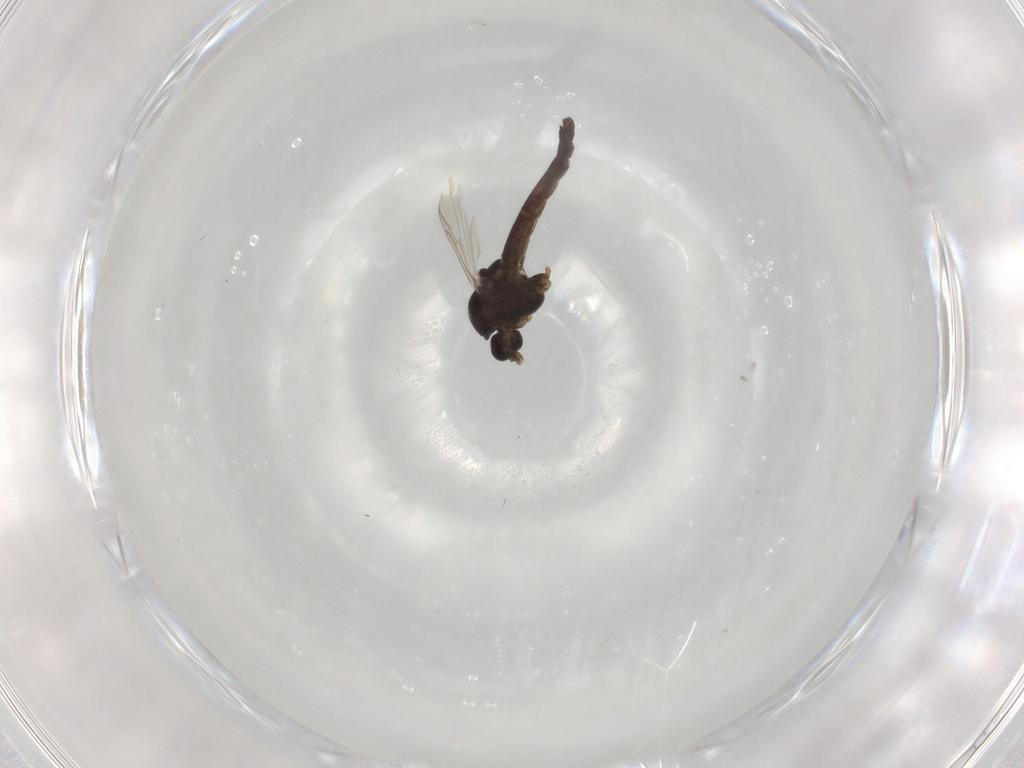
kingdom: Animalia
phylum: Arthropoda
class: Insecta
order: Diptera
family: Chironomidae
